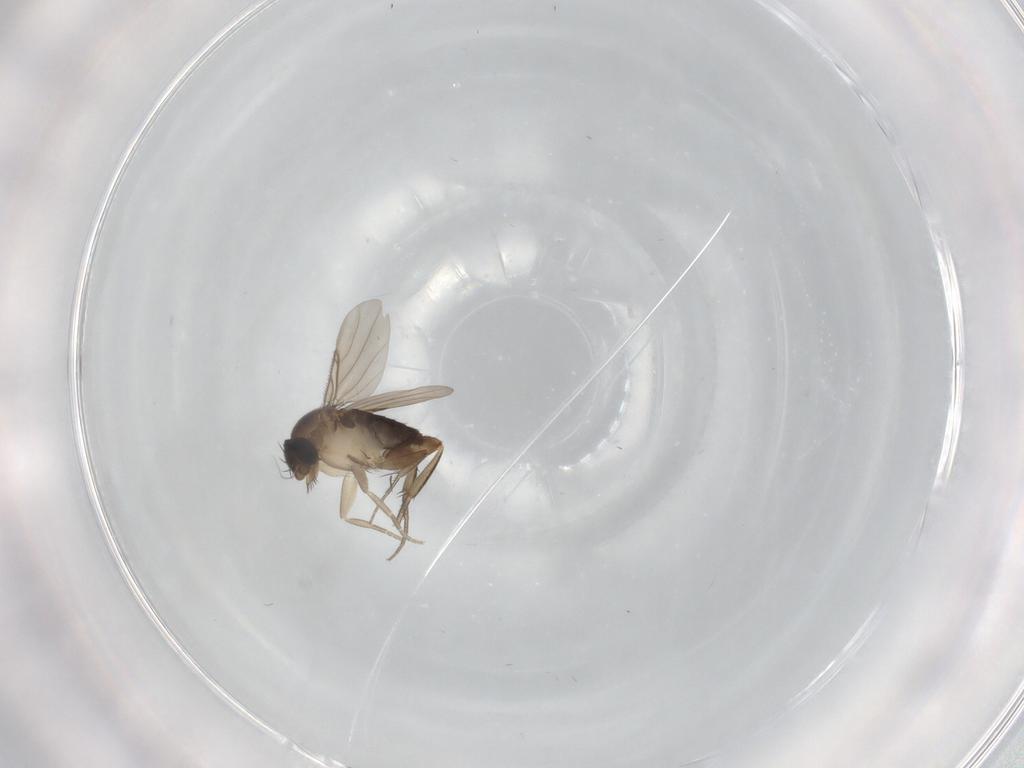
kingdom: Animalia
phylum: Arthropoda
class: Insecta
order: Diptera
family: Phoridae
